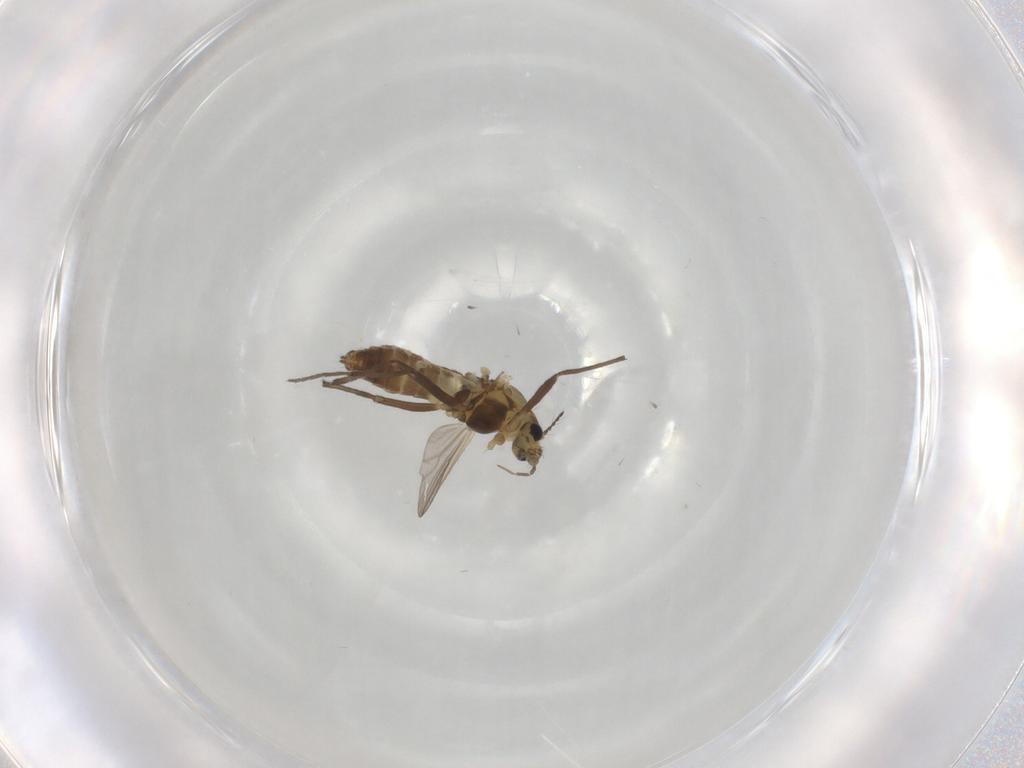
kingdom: Animalia
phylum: Arthropoda
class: Insecta
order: Diptera
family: Chironomidae
